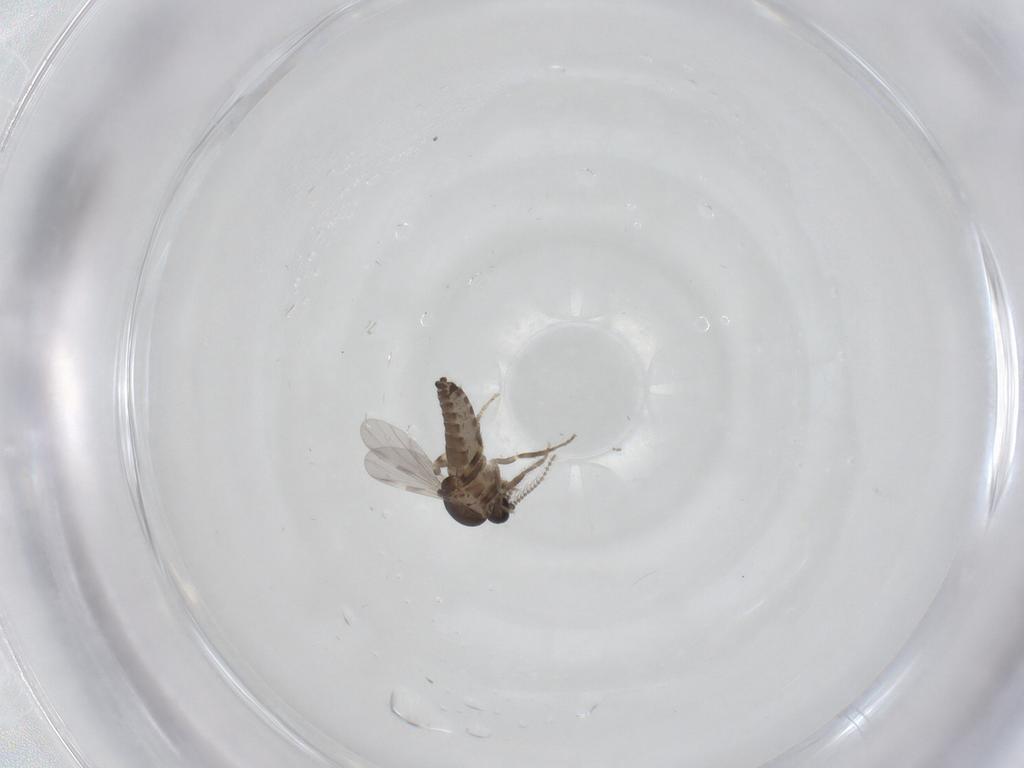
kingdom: Animalia
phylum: Arthropoda
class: Insecta
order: Diptera
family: Ceratopogonidae
